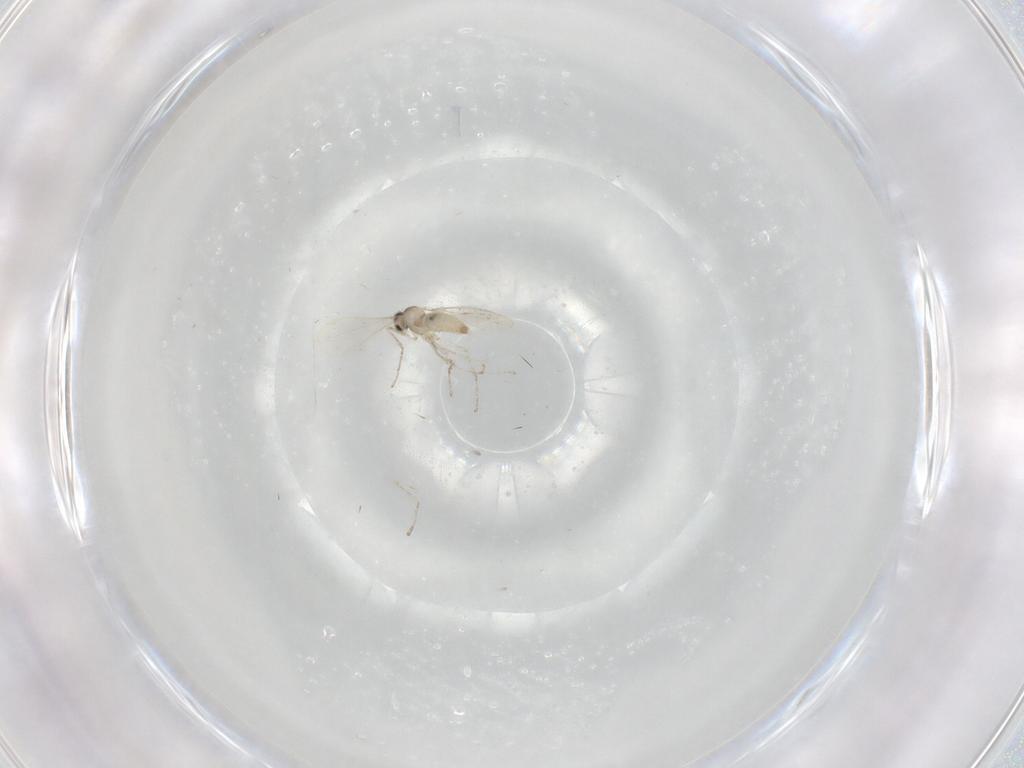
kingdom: Animalia
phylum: Arthropoda
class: Insecta
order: Diptera
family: Cecidomyiidae
